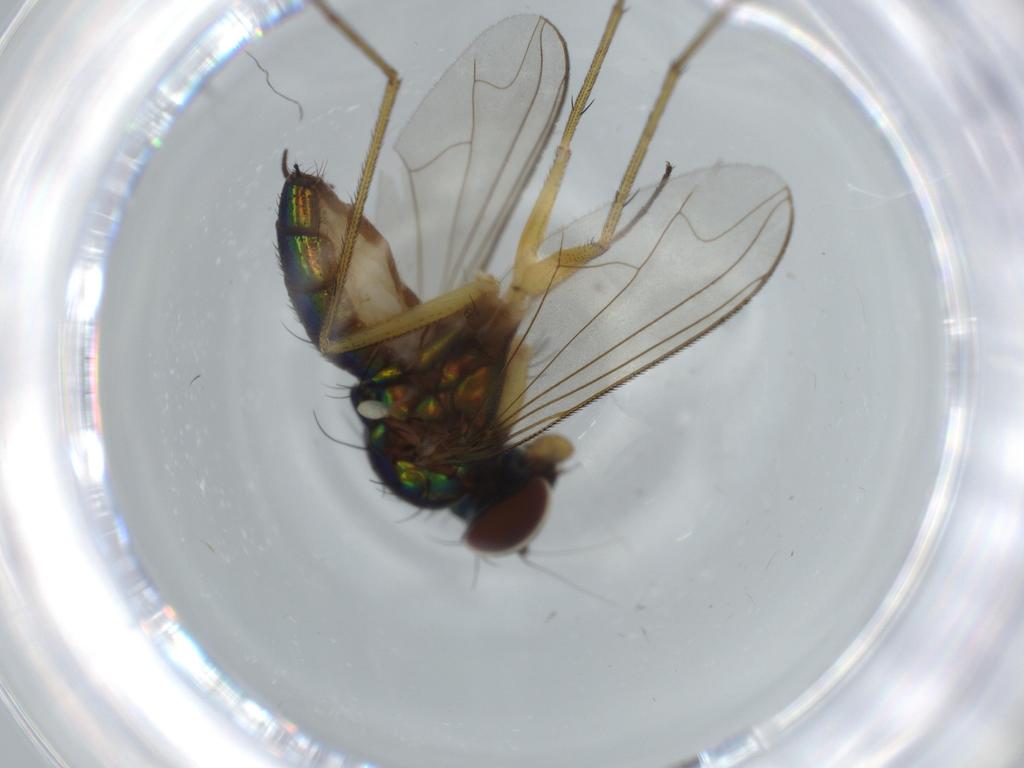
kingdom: Animalia
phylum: Arthropoda
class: Insecta
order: Diptera
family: Dolichopodidae
